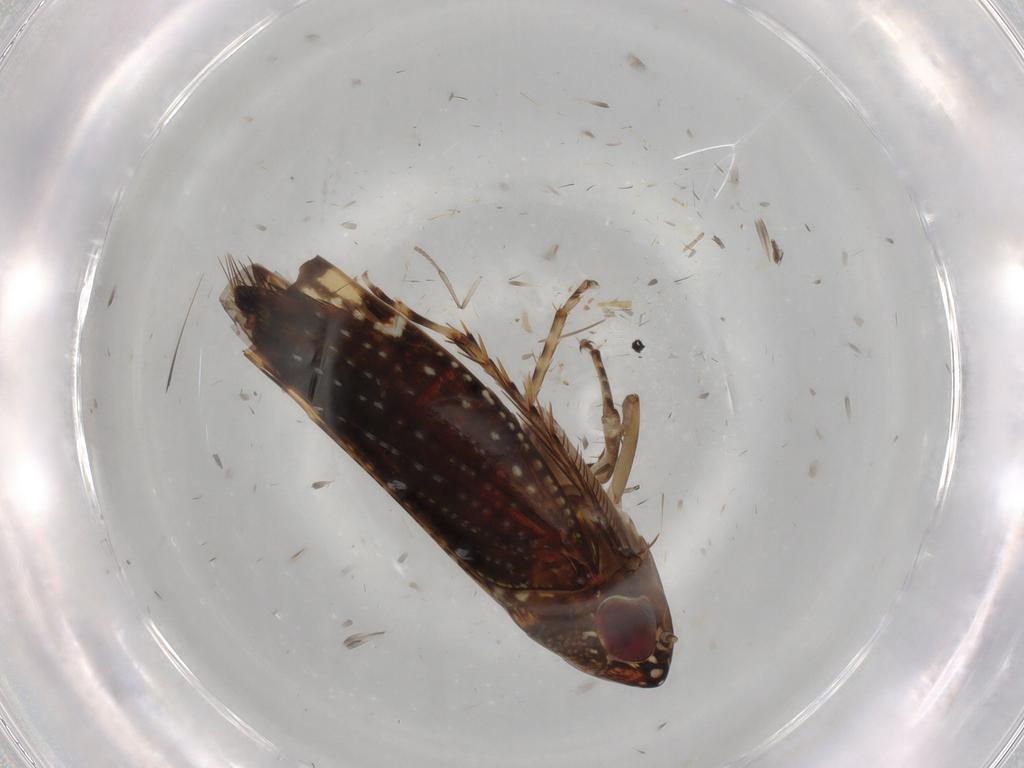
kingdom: Animalia
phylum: Arthropoda
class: Insecta
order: Hemiptera
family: Cicadellidae
